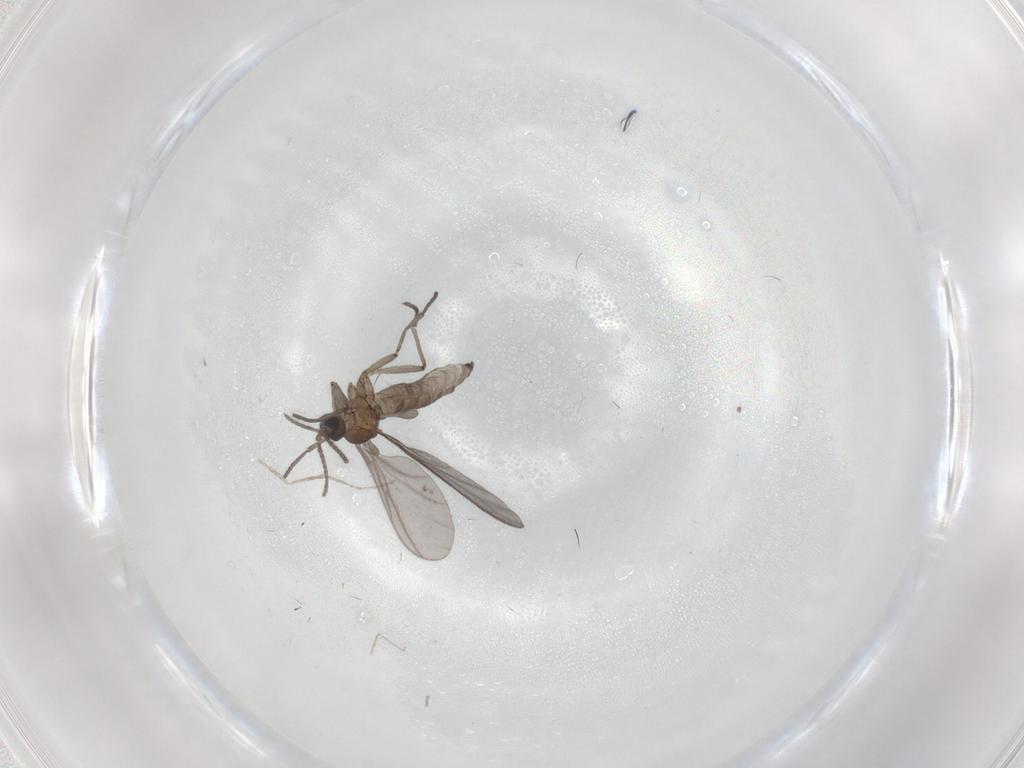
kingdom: Animalia
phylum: Arthropoda
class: Insecta
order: Diptera
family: Sciaridae
